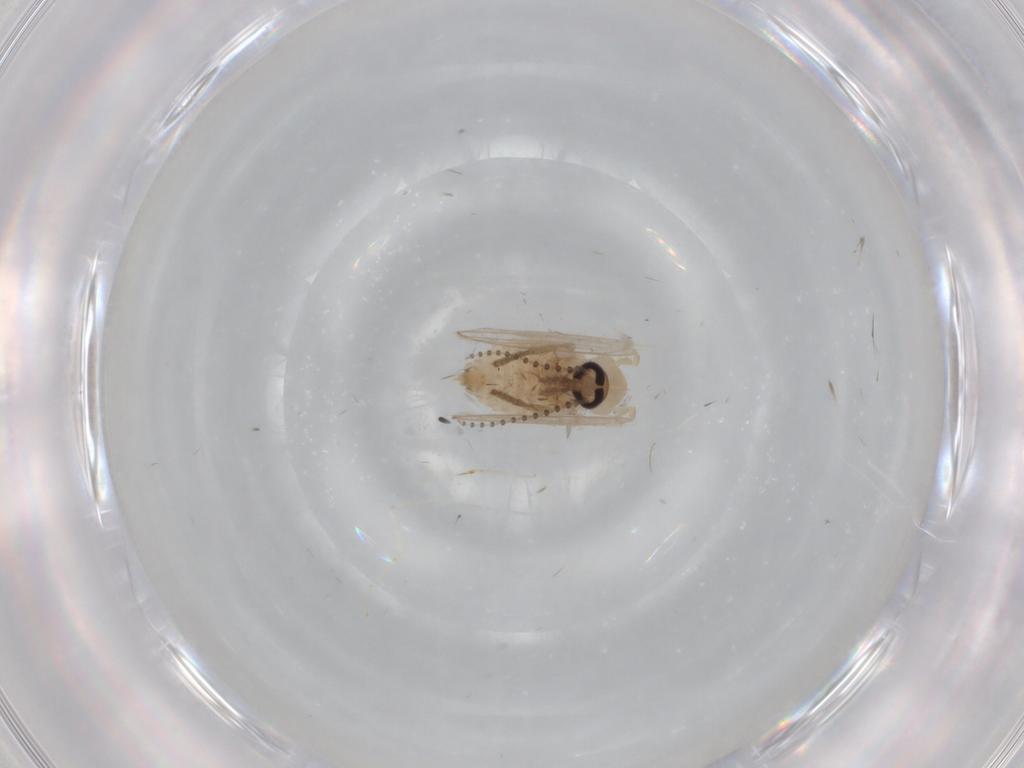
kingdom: Animalia
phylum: Arthropoda
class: Insecta
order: Diptera
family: Psychodidae
